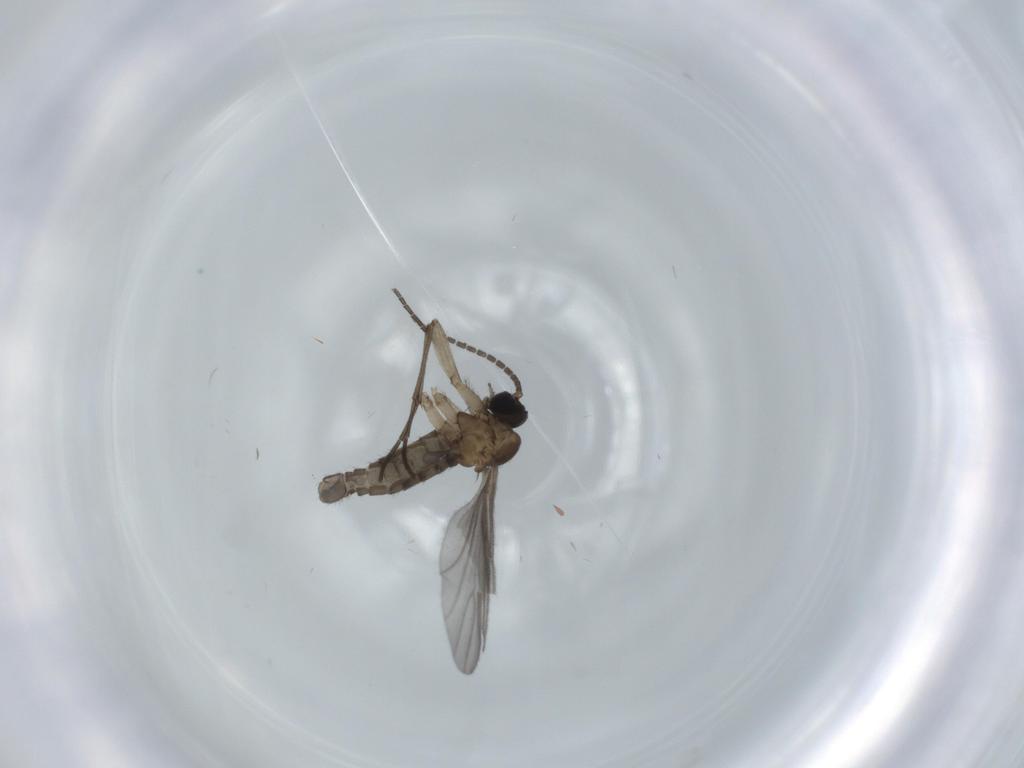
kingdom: Animalia
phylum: Arthropoda
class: Insecta
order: Diptera
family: Sciaridae
